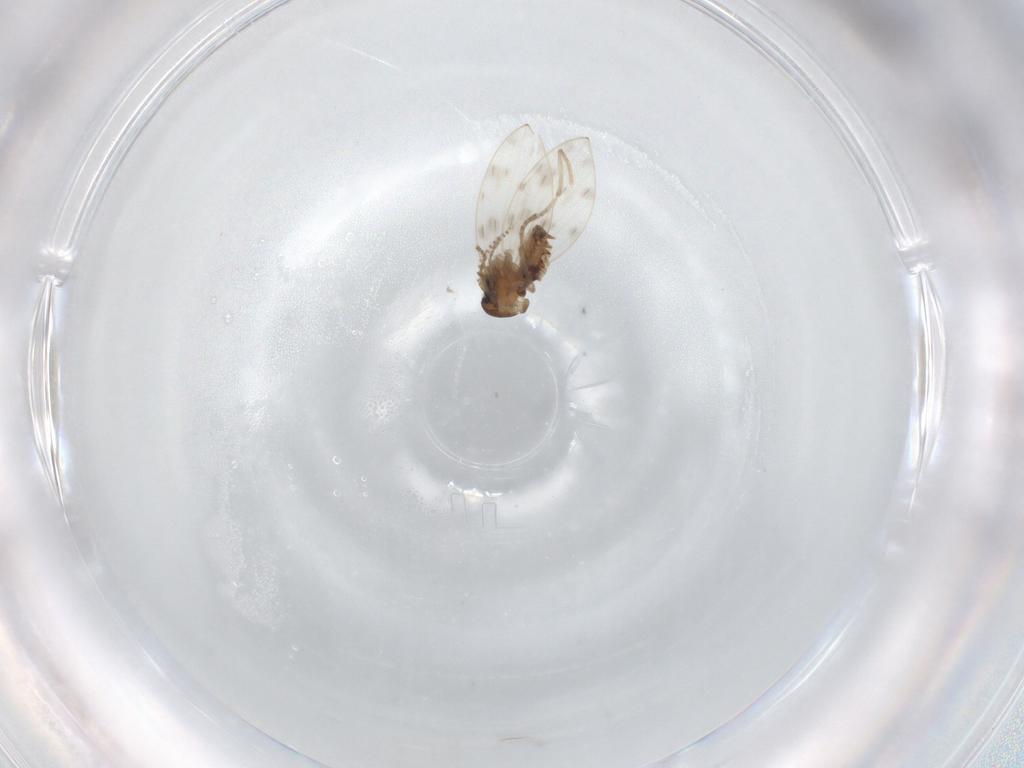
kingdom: Animalia
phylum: Arthropoda
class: Insecta
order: Diptera
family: Psychodidae
